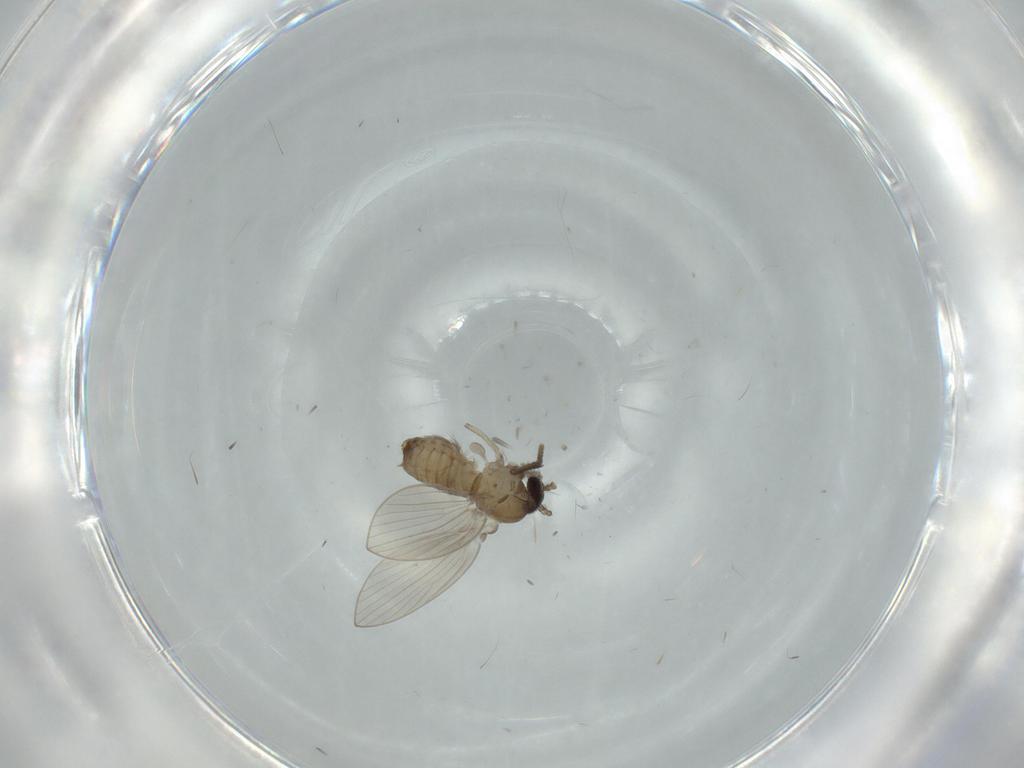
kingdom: Animalia
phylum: Arthropoda
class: Insecta
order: Diptera
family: Psychodidae
